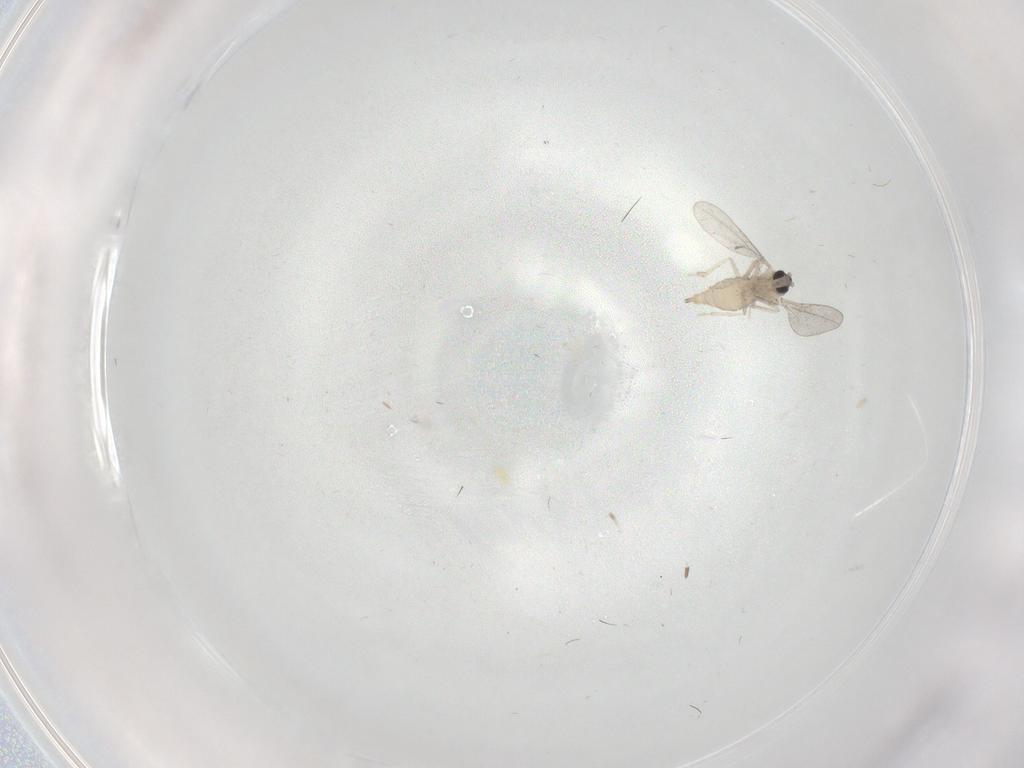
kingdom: Animalia
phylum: Arthropoda
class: Insecta
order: Diptera
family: Cecidomyiidae
